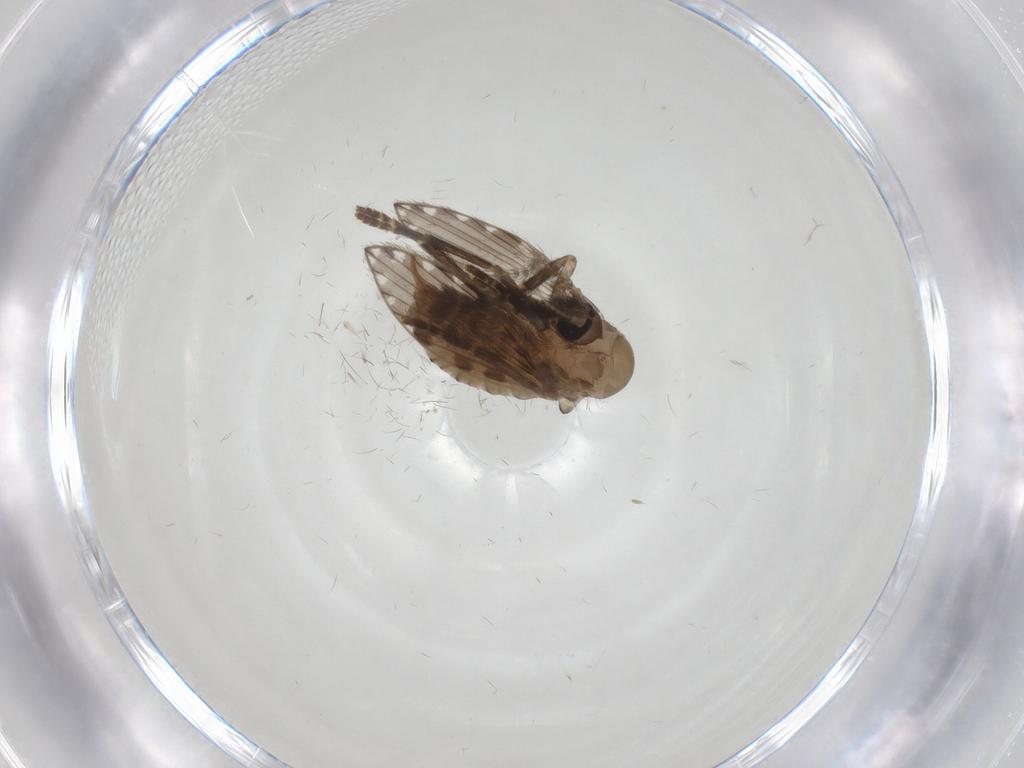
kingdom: Animalia
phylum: Arthropoda
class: Insecta
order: Diptera
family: Psychodidae
